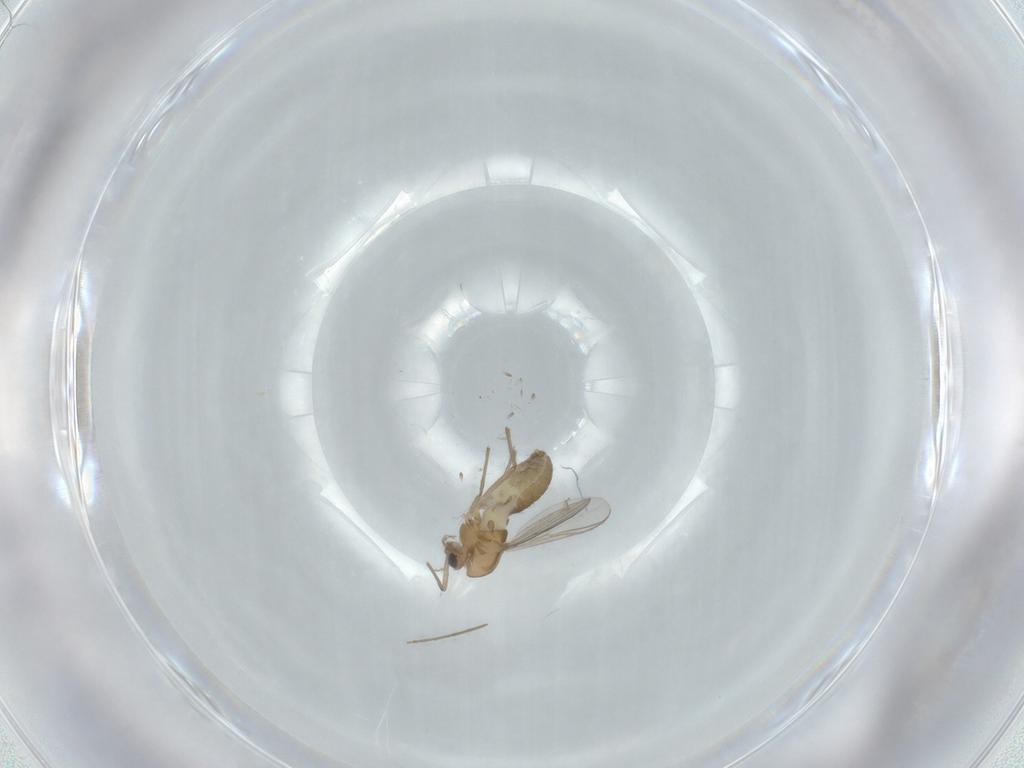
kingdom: Animalia
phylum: Arthropoda
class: Insecta
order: Diptera
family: Chironomidae
